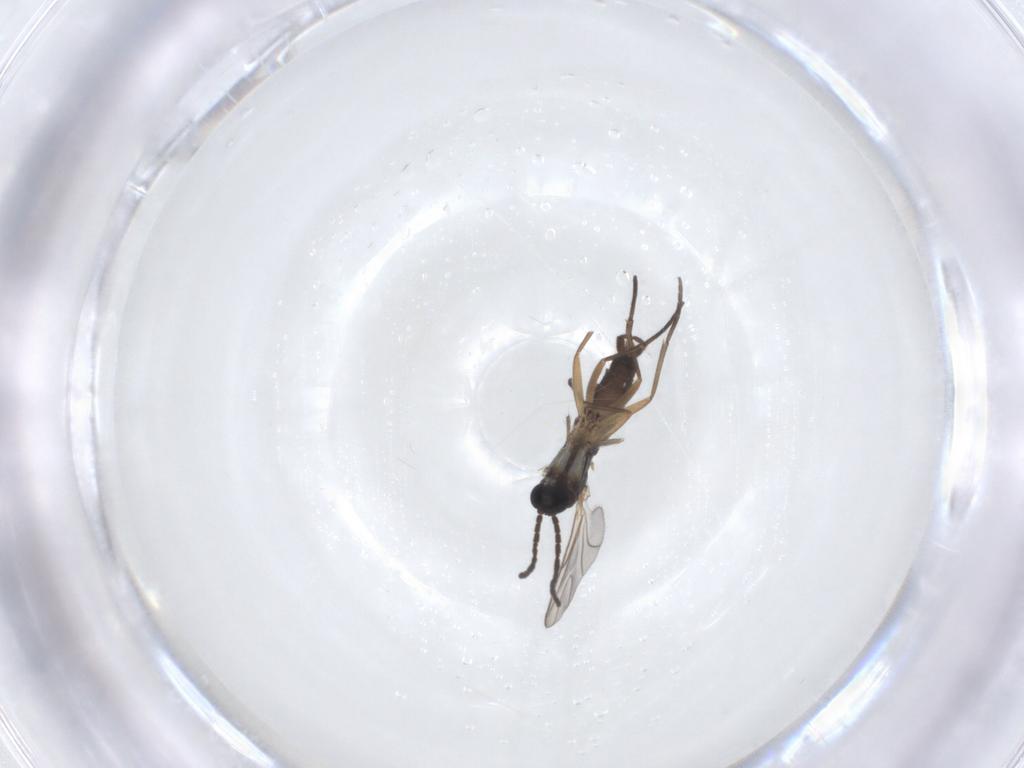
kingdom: Animalia
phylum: Arthropoda
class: Insecta
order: Diptera
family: Sciaridae
